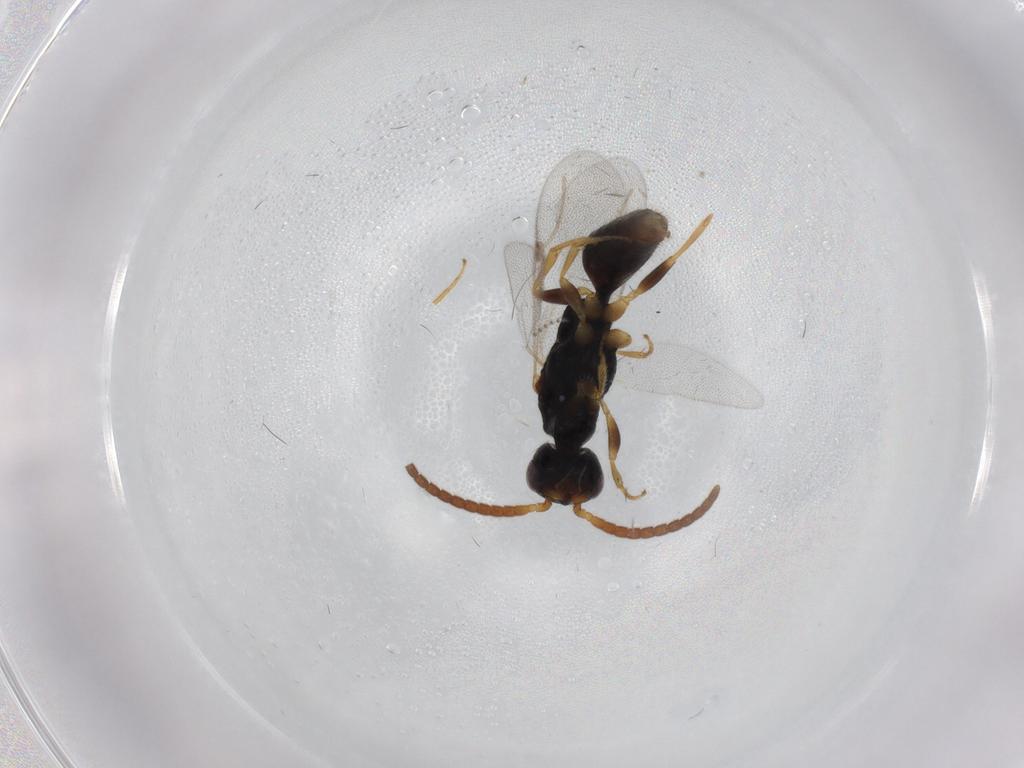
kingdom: Animalia
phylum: Arthropoda
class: Insecta
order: Hymenoptera
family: Bethylidae
